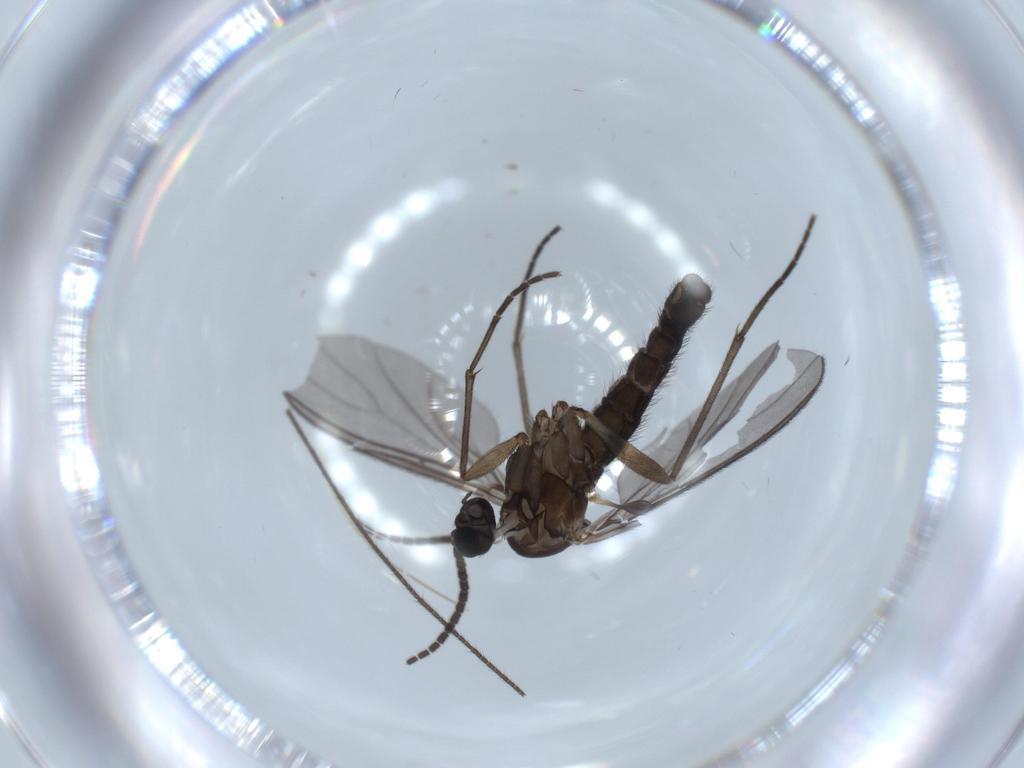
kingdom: Animalia
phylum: Arthropoda
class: Insecta
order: Diptera
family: Sciaridae
